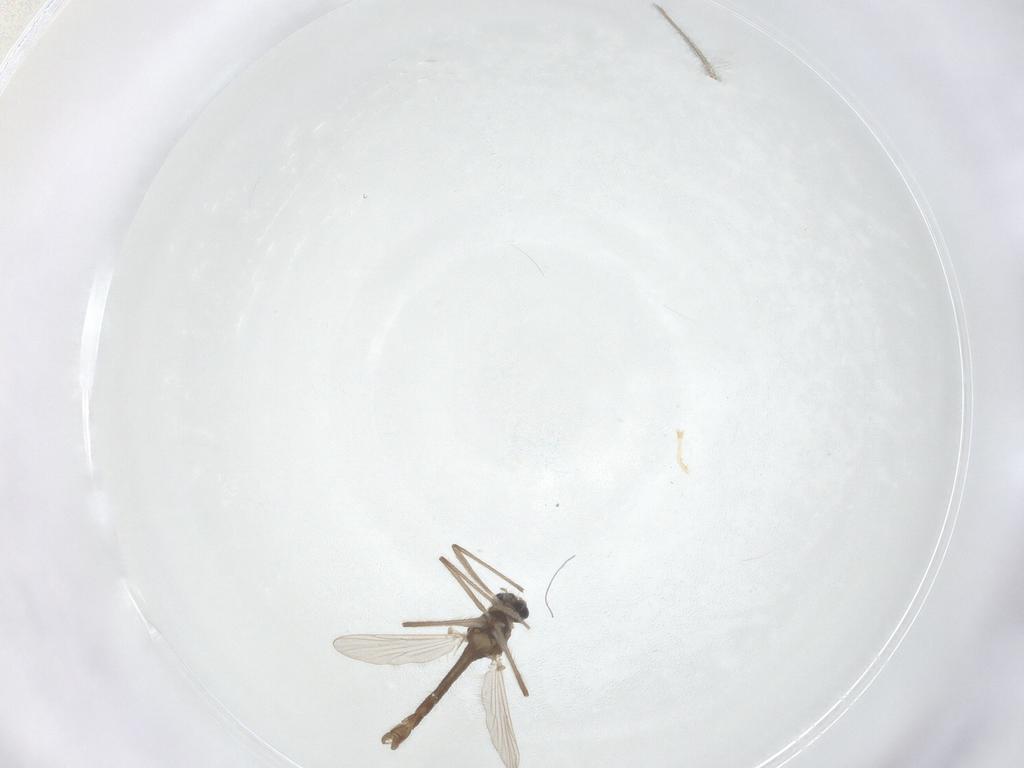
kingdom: Animalia
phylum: Arthropoda
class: Insecta
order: Diptera
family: Chironomidae
